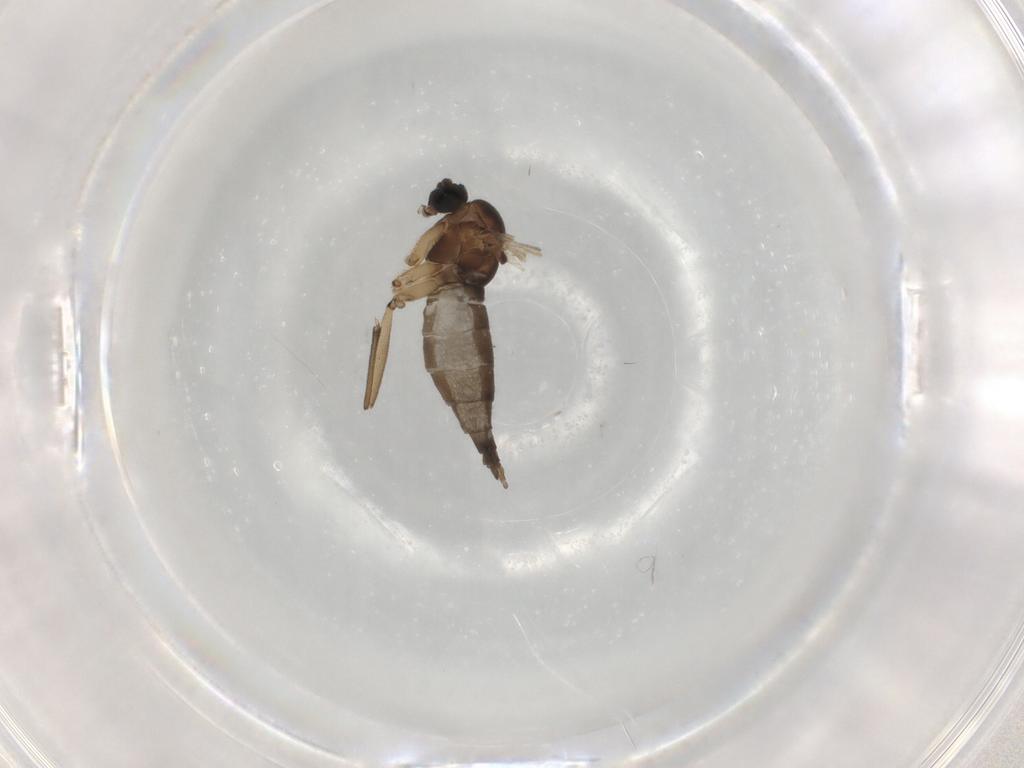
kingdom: Animalia
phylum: Arthropoda
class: Insecta
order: Diptera
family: Sciaridae
